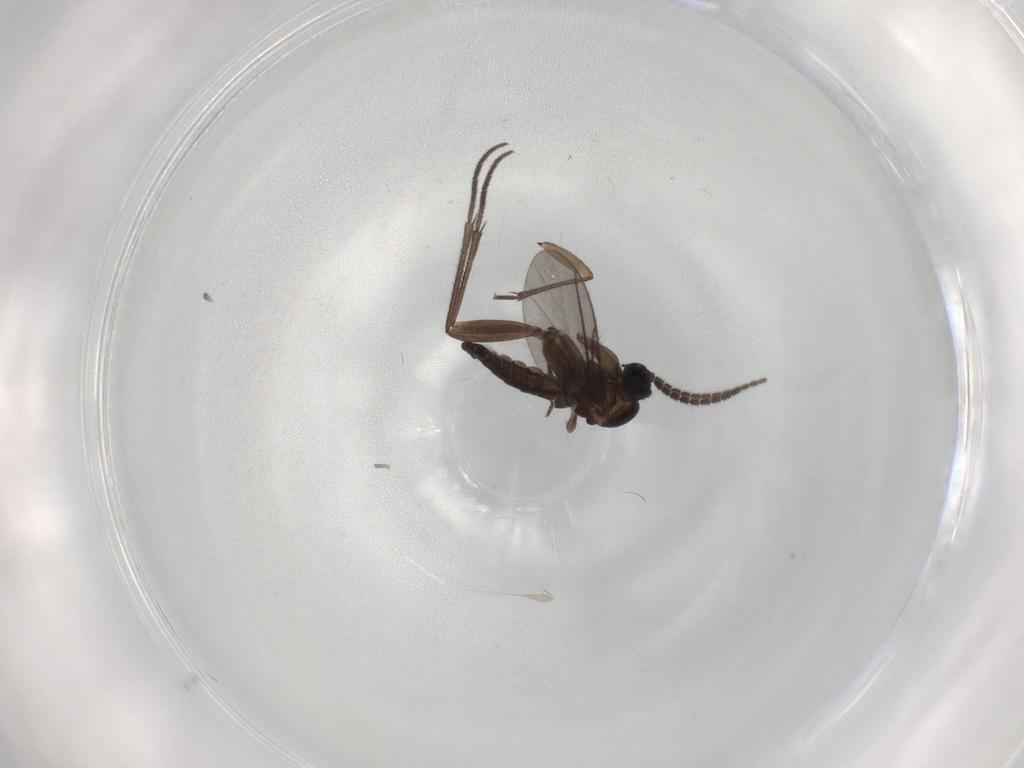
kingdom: Animalia
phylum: Arthropoda
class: Insecta
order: Diptera
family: Sciaridae
